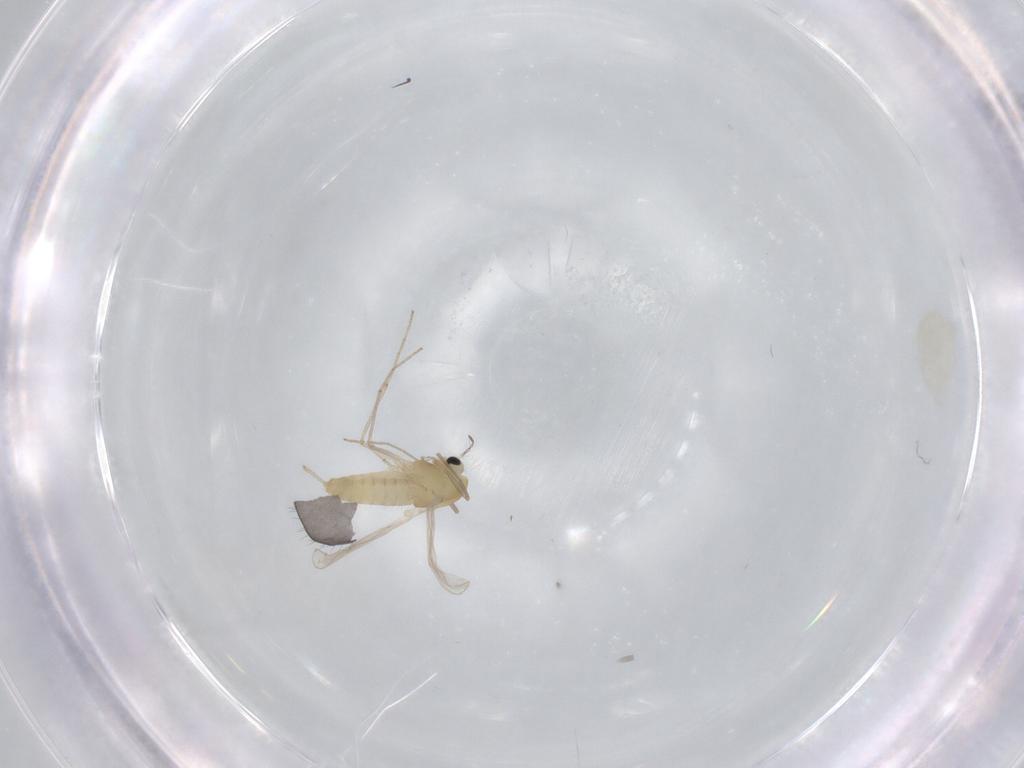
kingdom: Animalia
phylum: Arthropoda
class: Insecta
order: Diptera
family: Chironomidae
